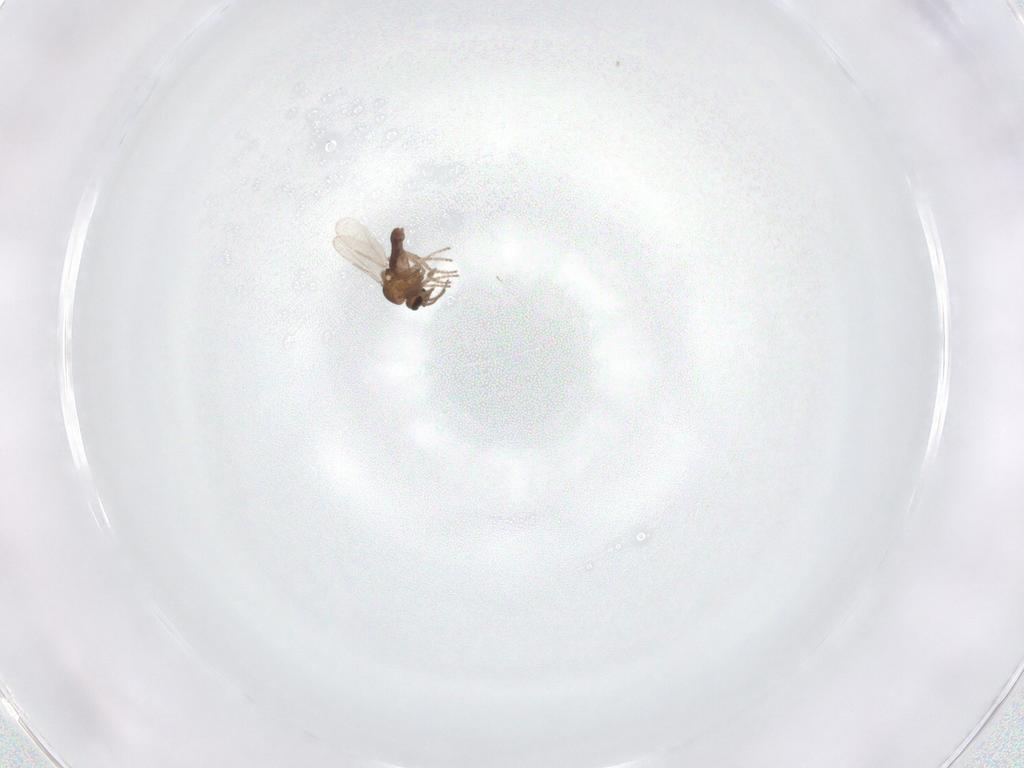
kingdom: Animalia
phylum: Arthropoda
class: Insecta
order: Diptera
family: Ceratopogonidae
